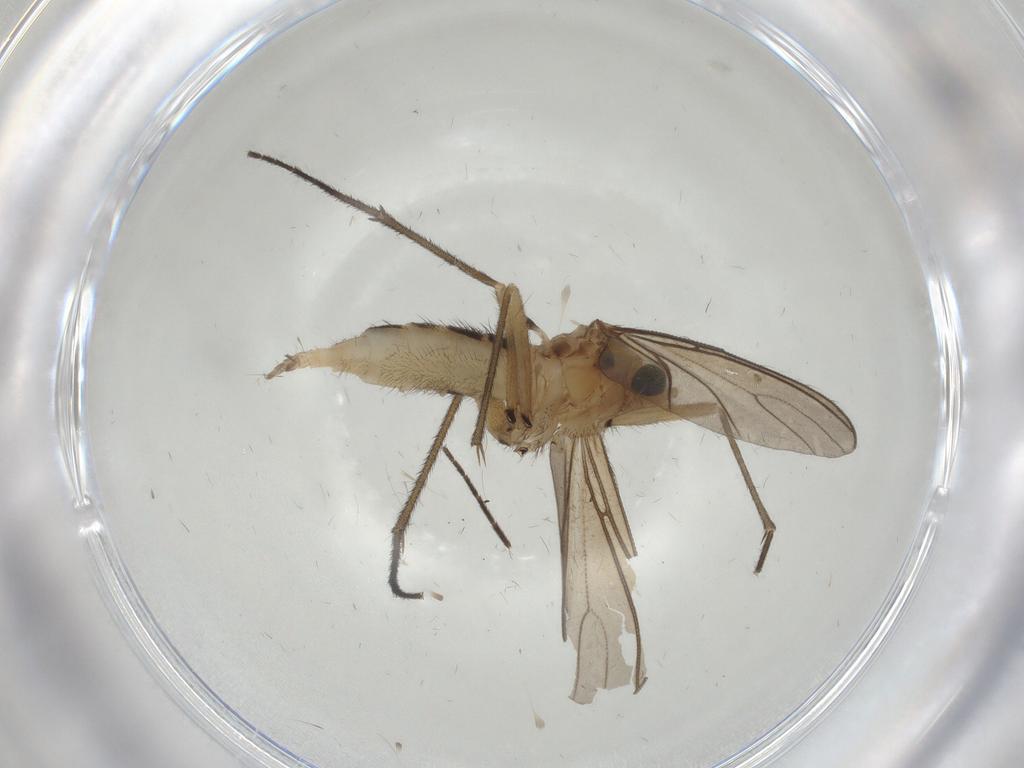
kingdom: Animalia
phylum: Arthropoda
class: Insecta
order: Diptera
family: Sciaridae
